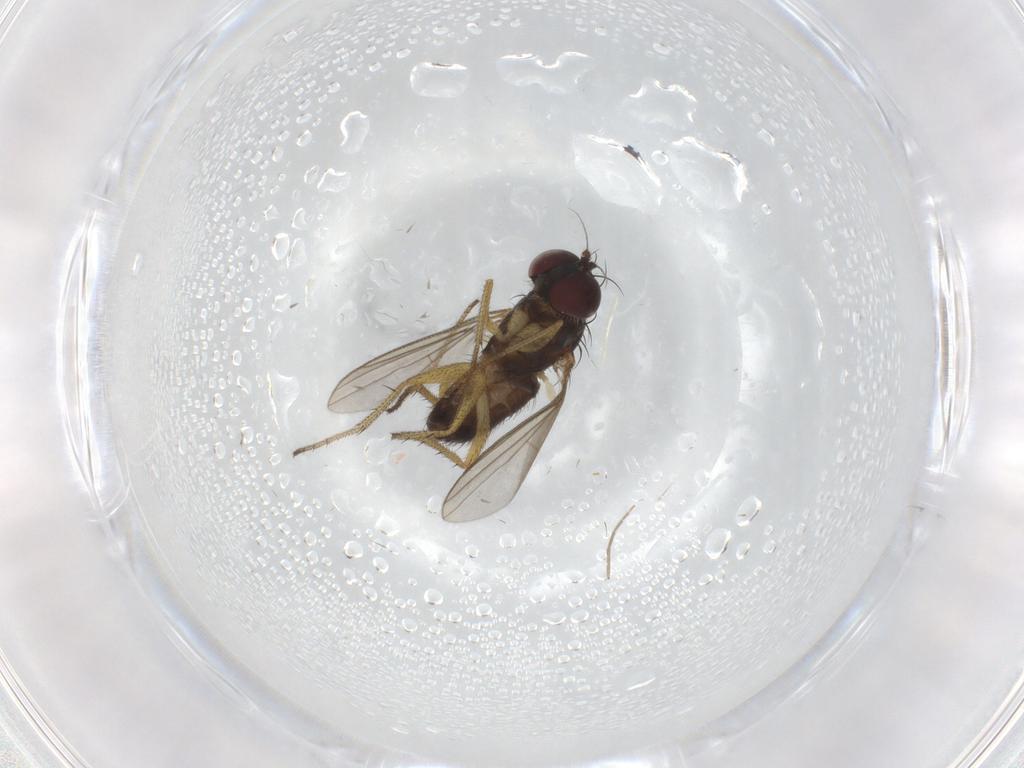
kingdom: Animalia
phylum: Arthropoda
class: Insecta
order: Diptera
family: Dolichopodidae
